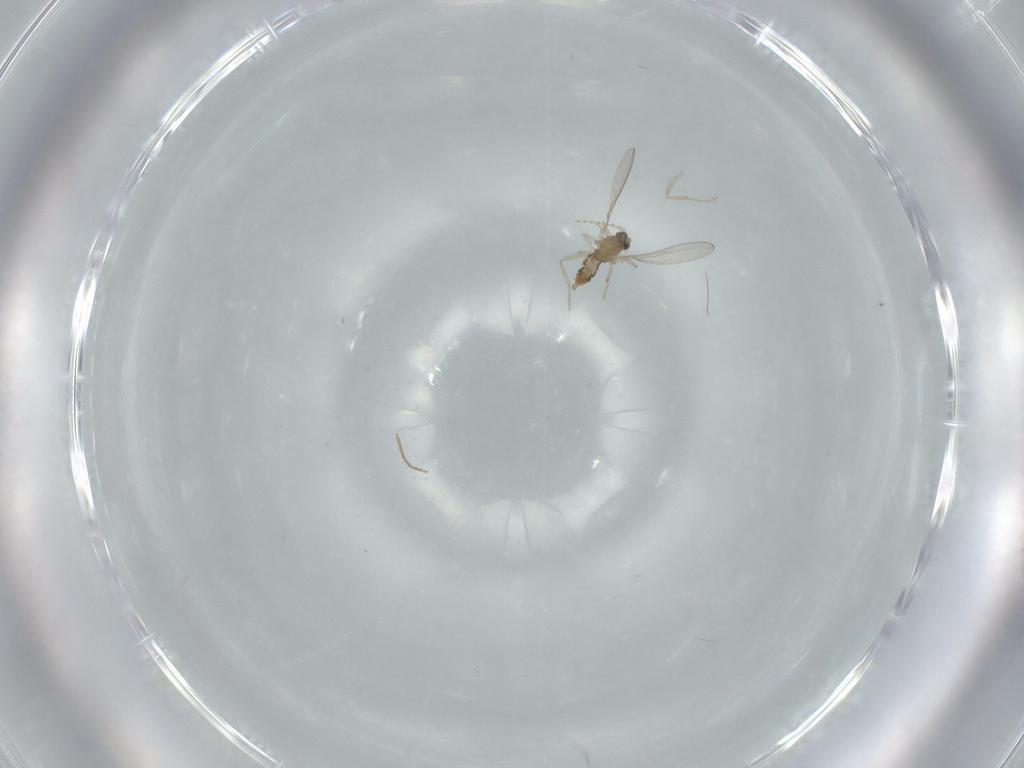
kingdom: Animalia
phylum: Arthropoda
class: Insecta
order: Diptera
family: Cecidomyiidae
